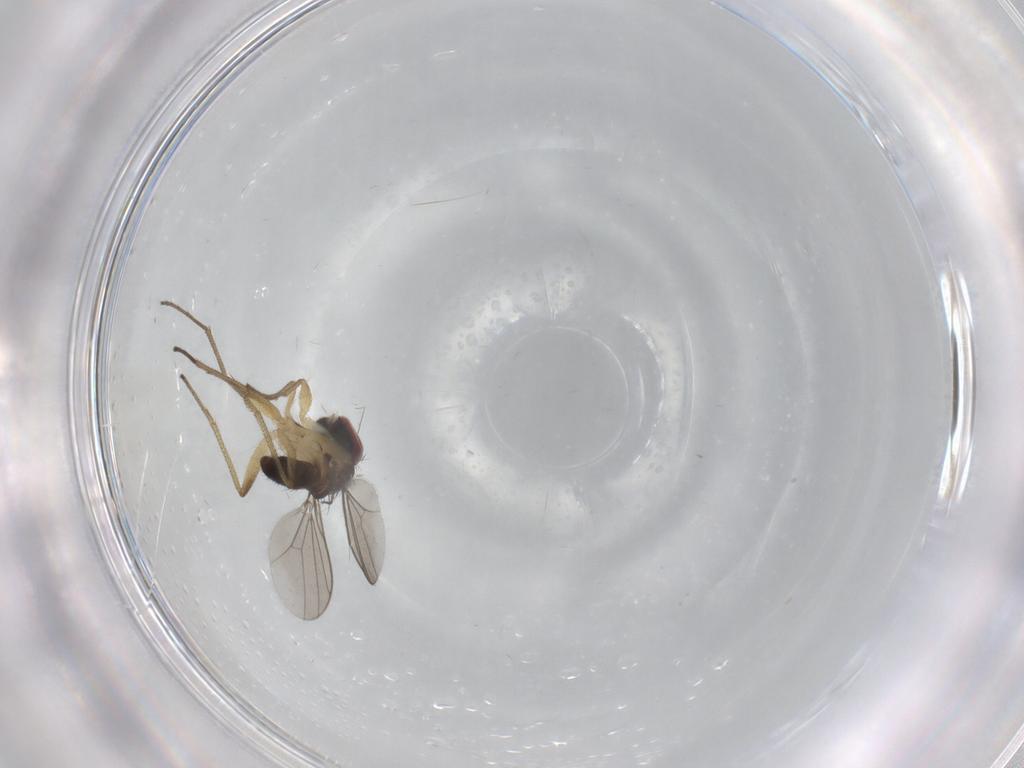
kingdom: Animalia
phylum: Arthropoda
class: Insecta
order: Diptera
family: Dolichopodidae
